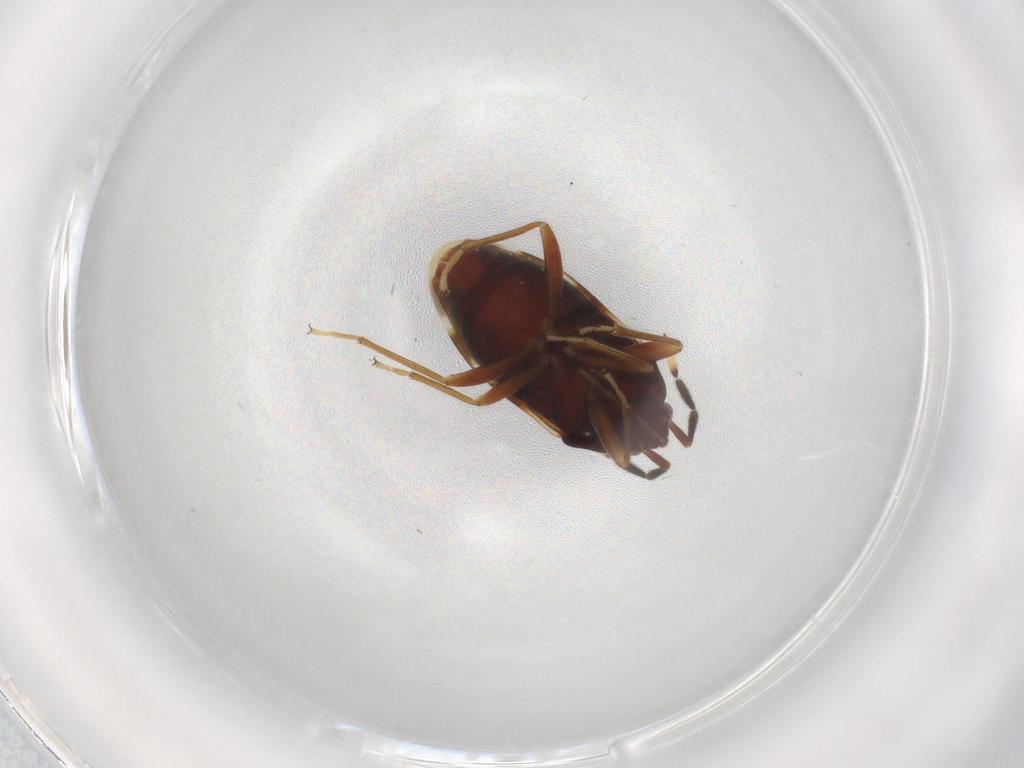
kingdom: Animalia
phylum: Arthropoda
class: Insecta
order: Hemiptera
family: Rhyparochromidae
